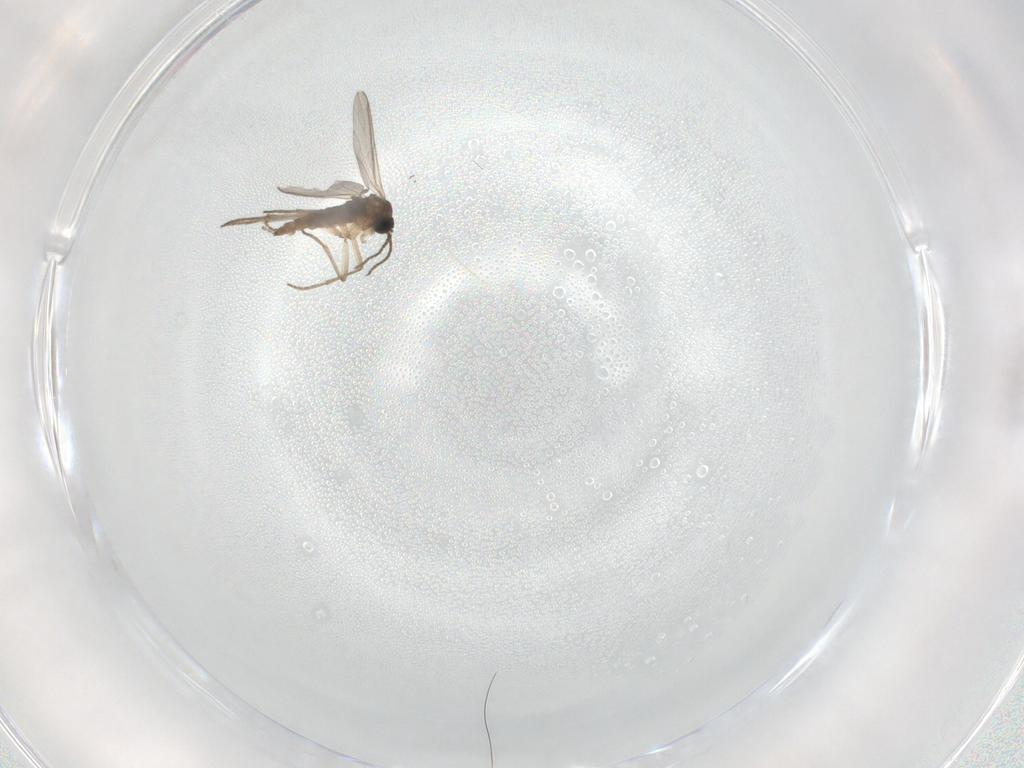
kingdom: Animalia
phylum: Arthropoda
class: Insecta
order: Diptera
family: Sciaridae
